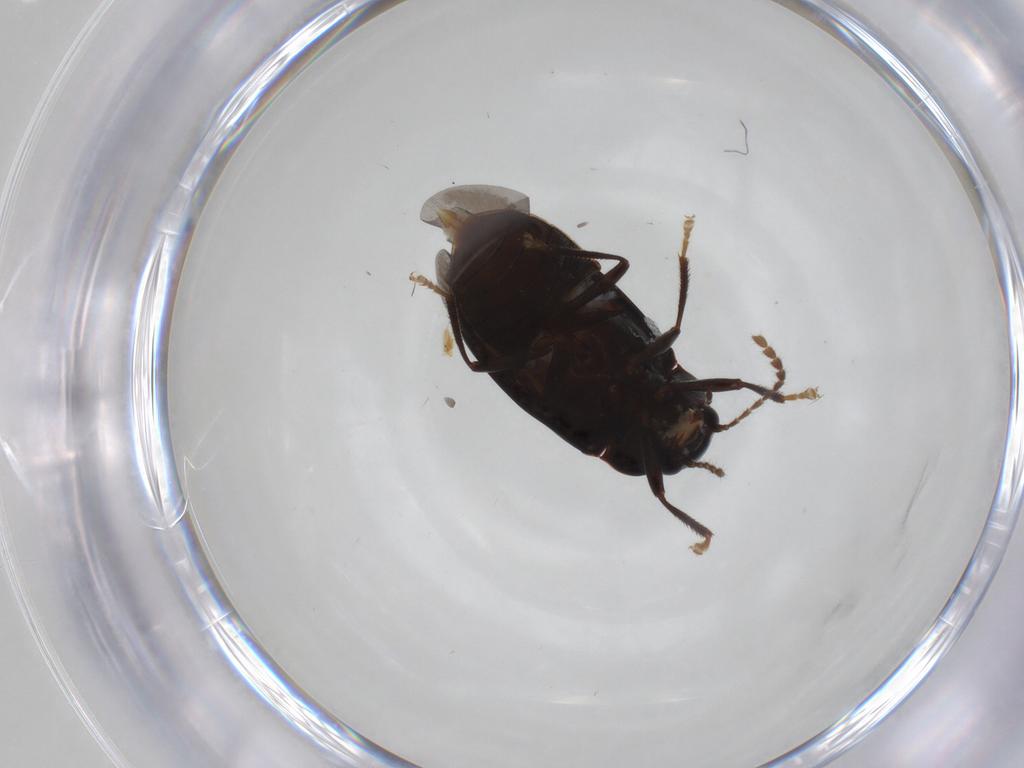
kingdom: Animalia
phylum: Arthropoda
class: Insecta
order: Coleoptera
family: Ptilodactylidae
